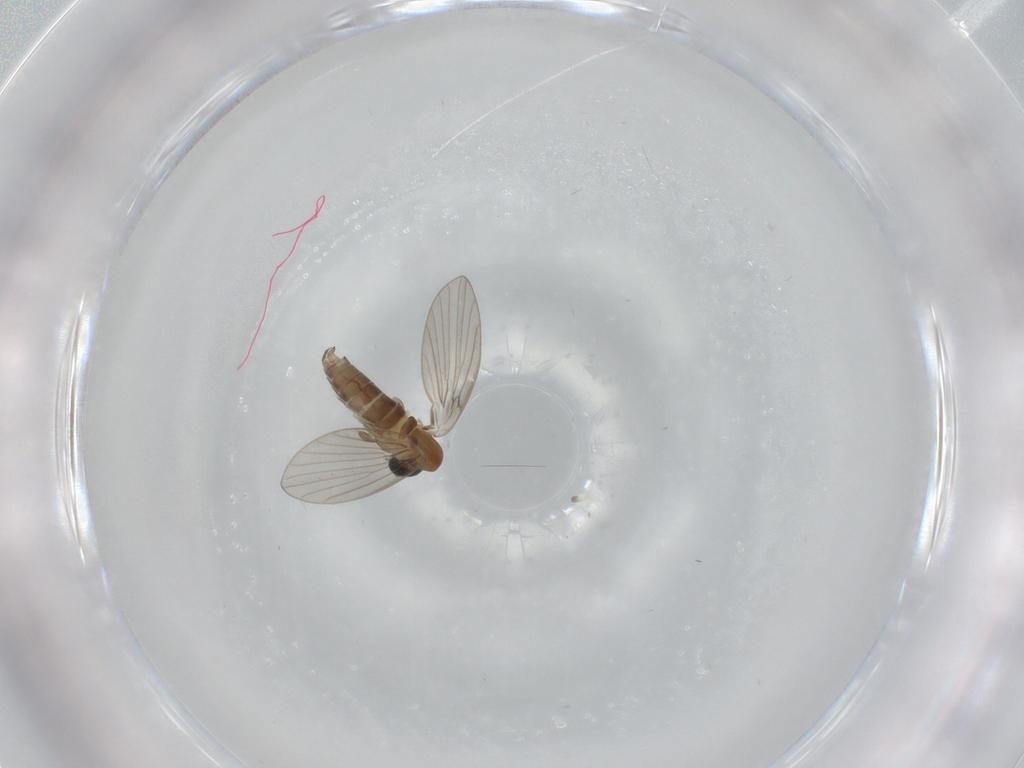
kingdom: Animalia
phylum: Arthropoda
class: Insecta
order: Diptera
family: Psychodidae
